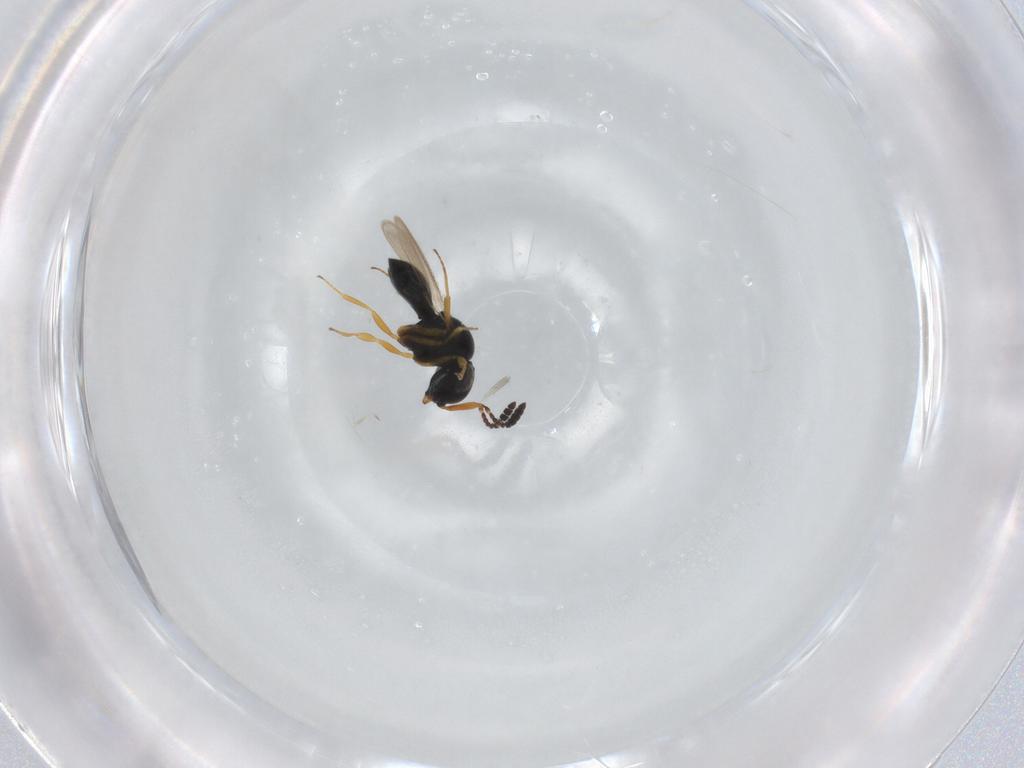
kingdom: Animalia
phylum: Arthropoda
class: Insecta
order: Hymenoptera
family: Scelionidae
